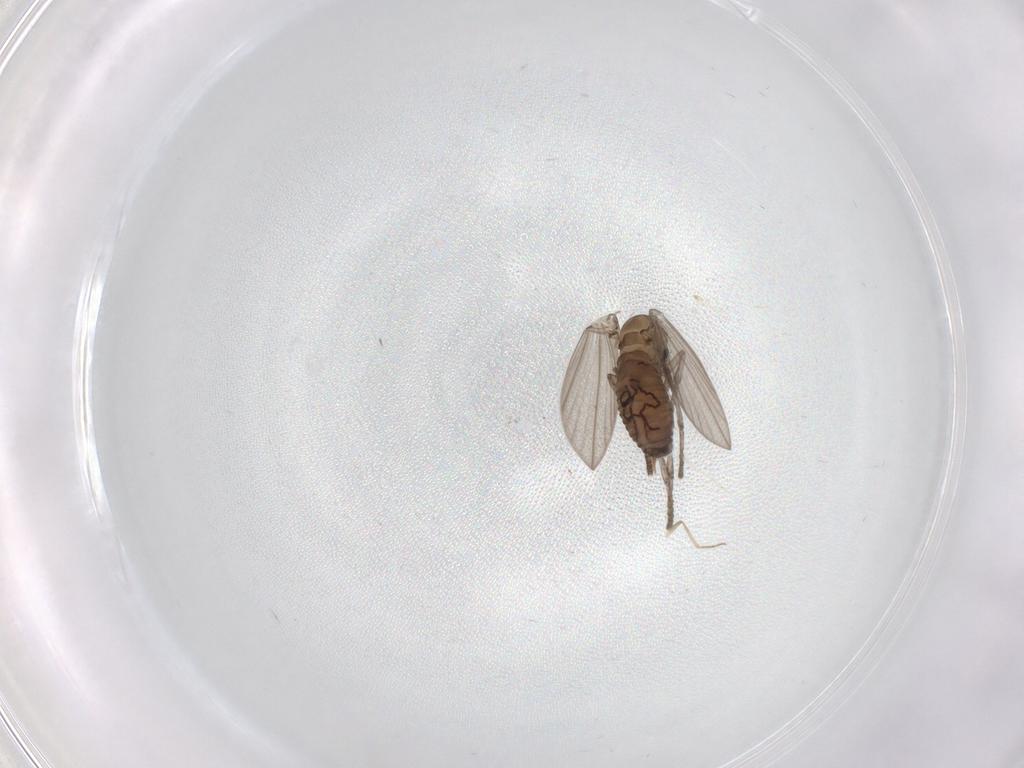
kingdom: Animalia
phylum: Arthropoda
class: Insecta
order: Diptera
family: Psychodidae
